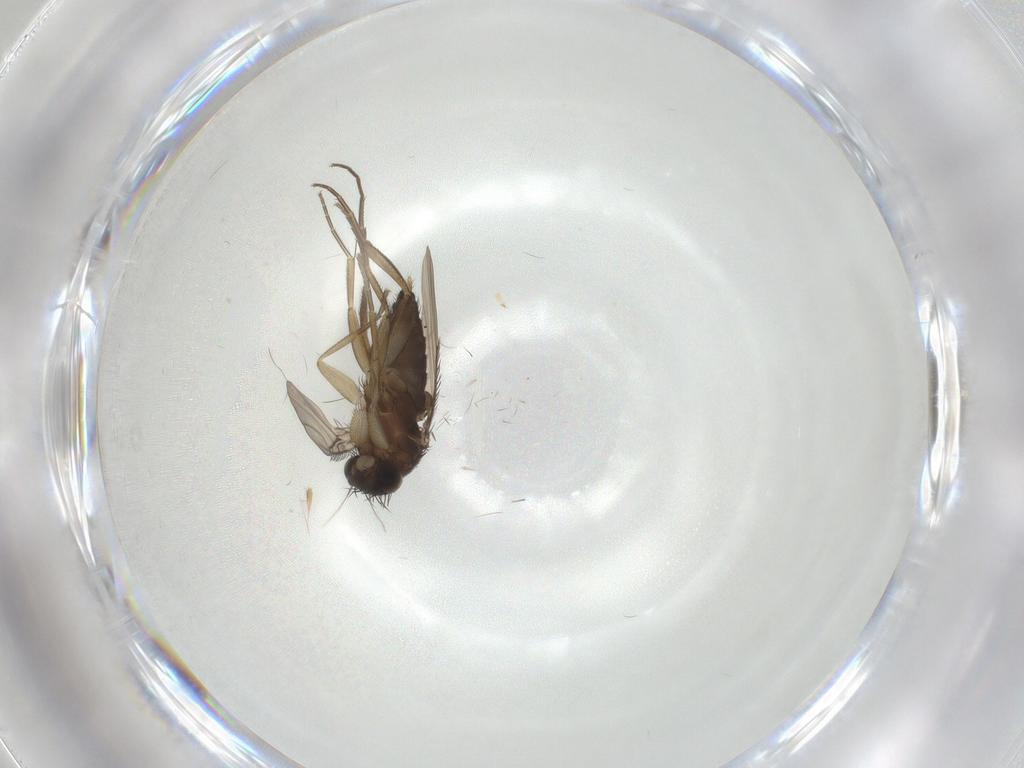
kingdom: Animalia
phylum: Arthropoda
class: Insecta
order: Diptera
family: Phoridae
